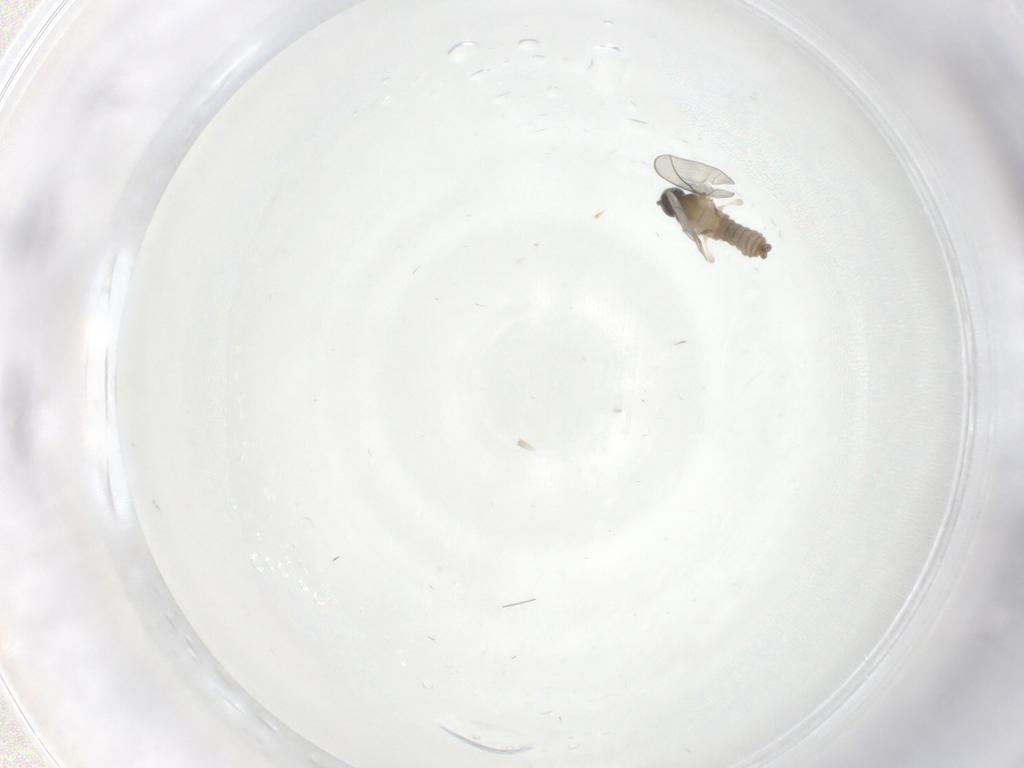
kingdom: Animalia
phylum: Arthropoda
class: Insecta
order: Diptera
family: Cecidomyiidae
